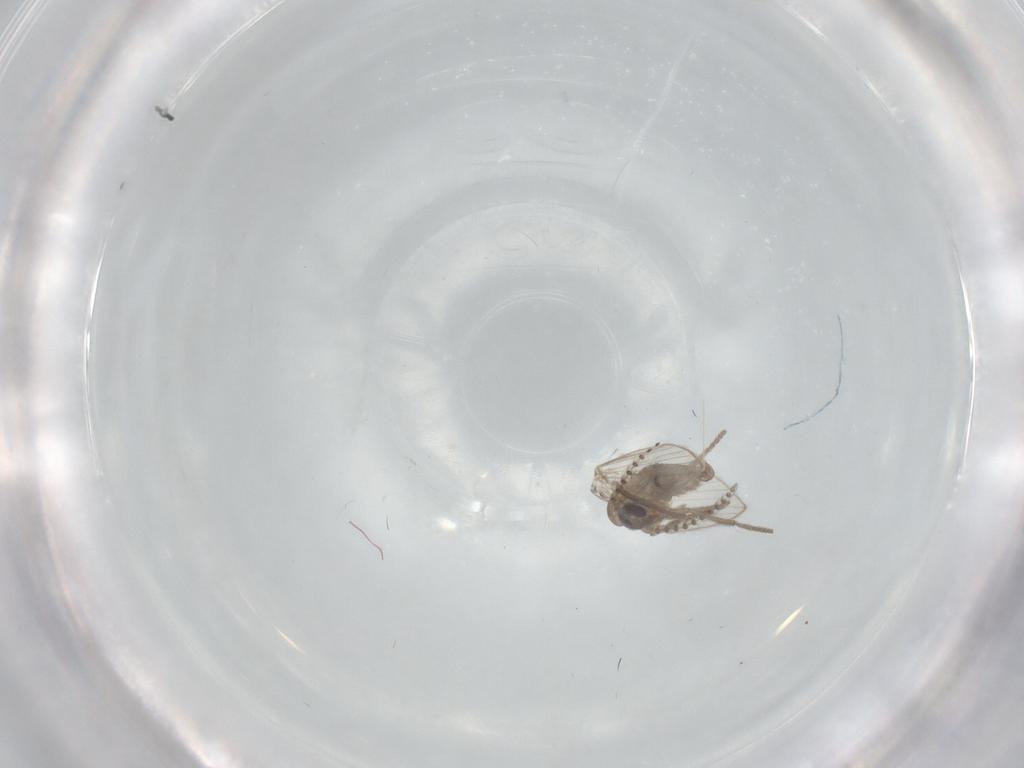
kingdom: Animalia
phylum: Arthropoda
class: Insecta
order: Diptera
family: Psychodidae
